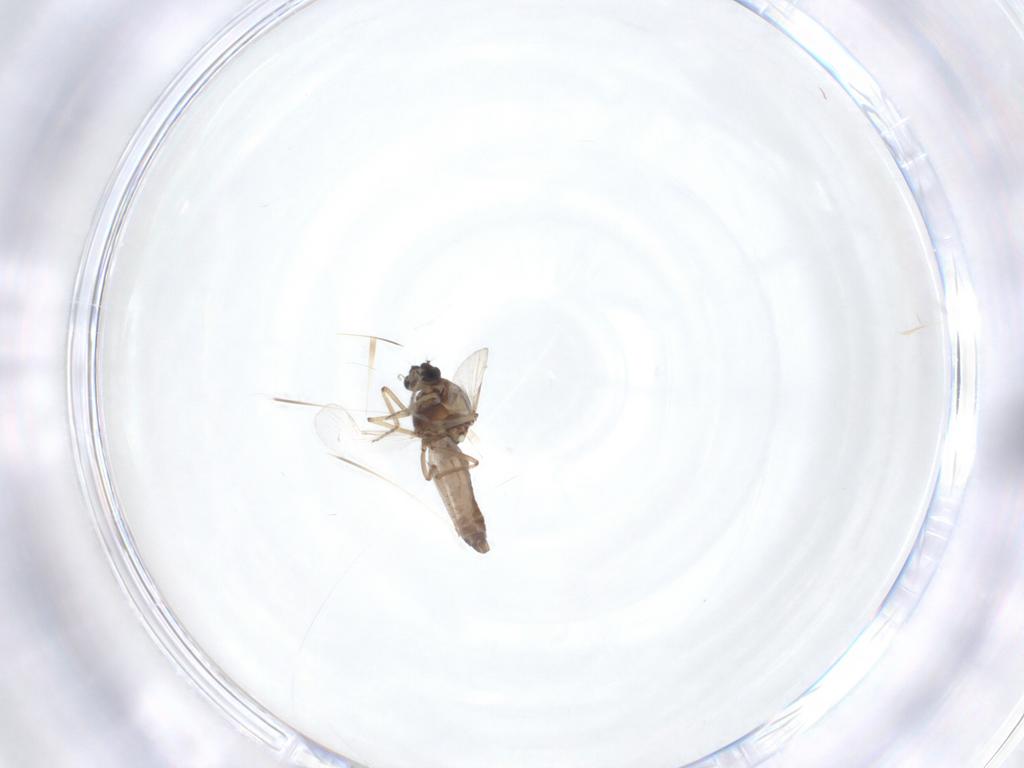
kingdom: Animalia
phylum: Arthropoda
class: Insecta
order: Diptera
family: Ceratopogonidae
